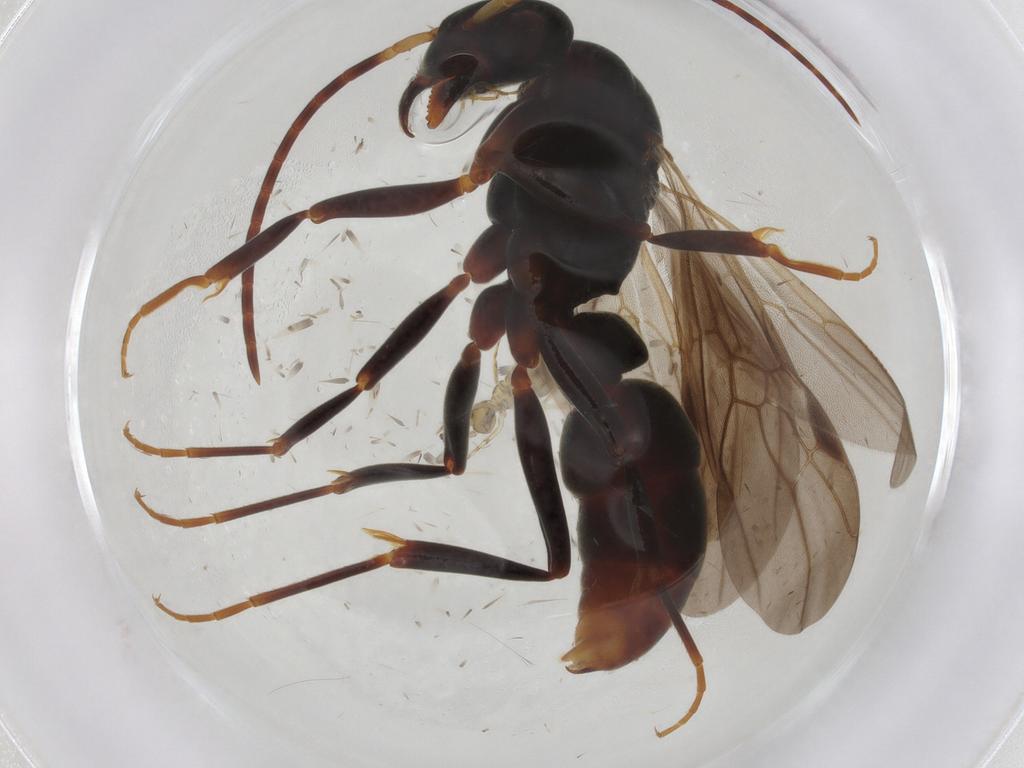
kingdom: Animalia
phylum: Arthropoda
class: Insecta
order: Hymenoptera
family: Formicidae
